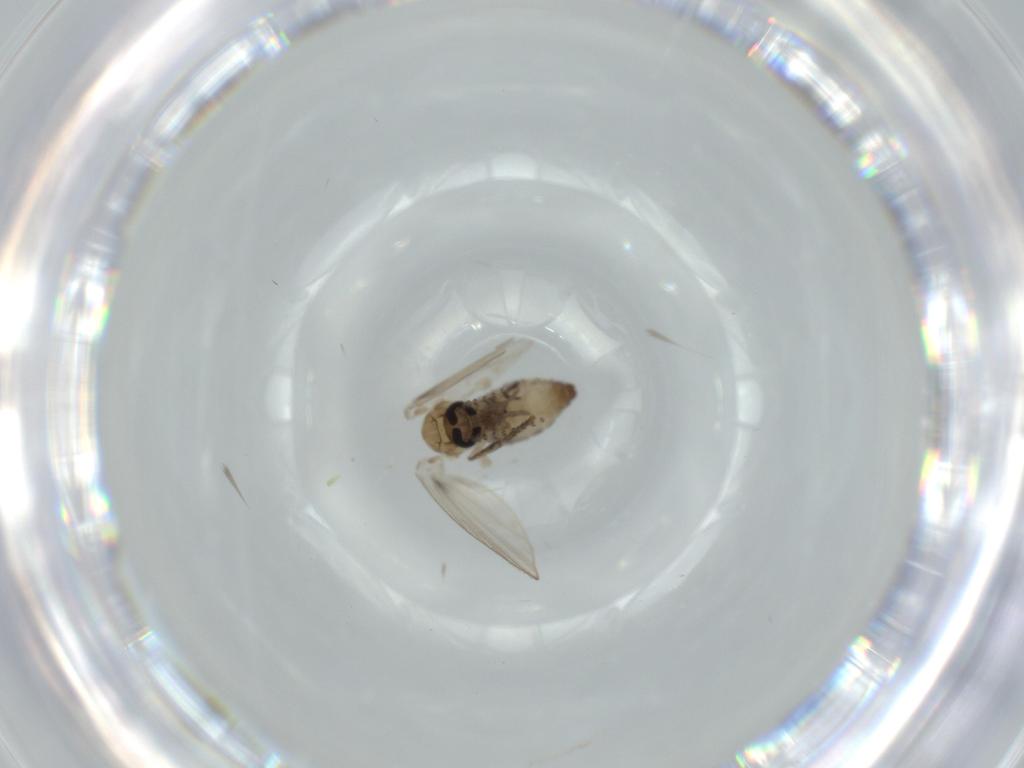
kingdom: Animalia
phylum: Arthropoda
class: Insecta
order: Diptera
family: Psychodidae
